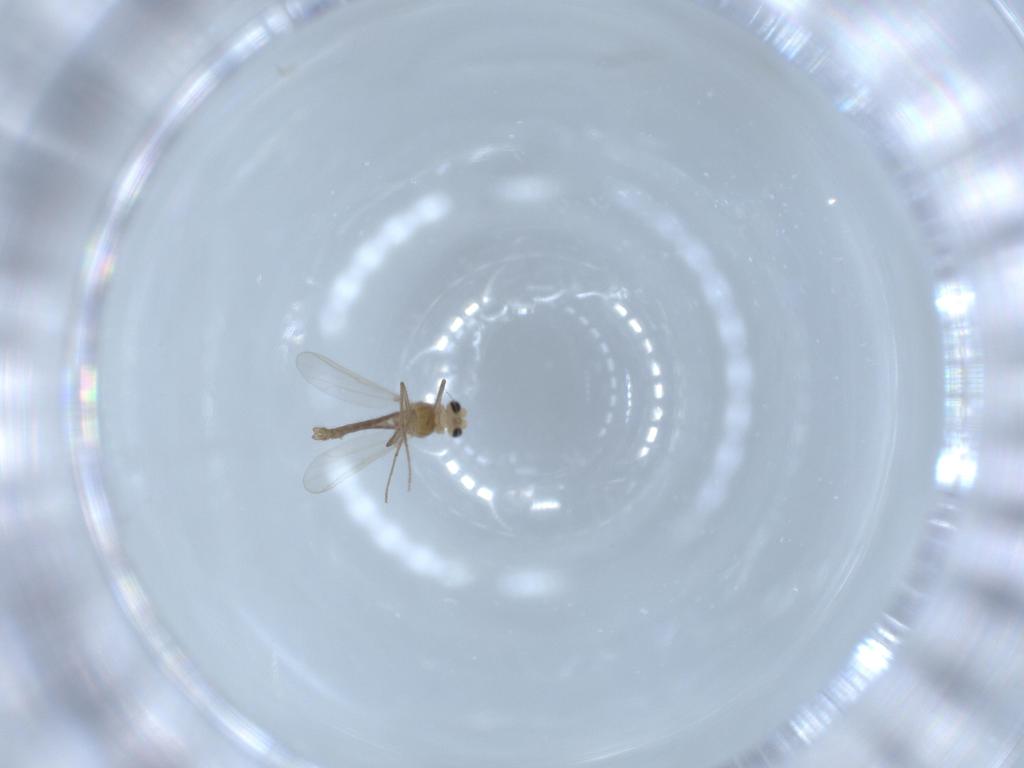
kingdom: Animalia
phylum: Arthropoda
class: Insecta
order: Diptera
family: Chironomidae
